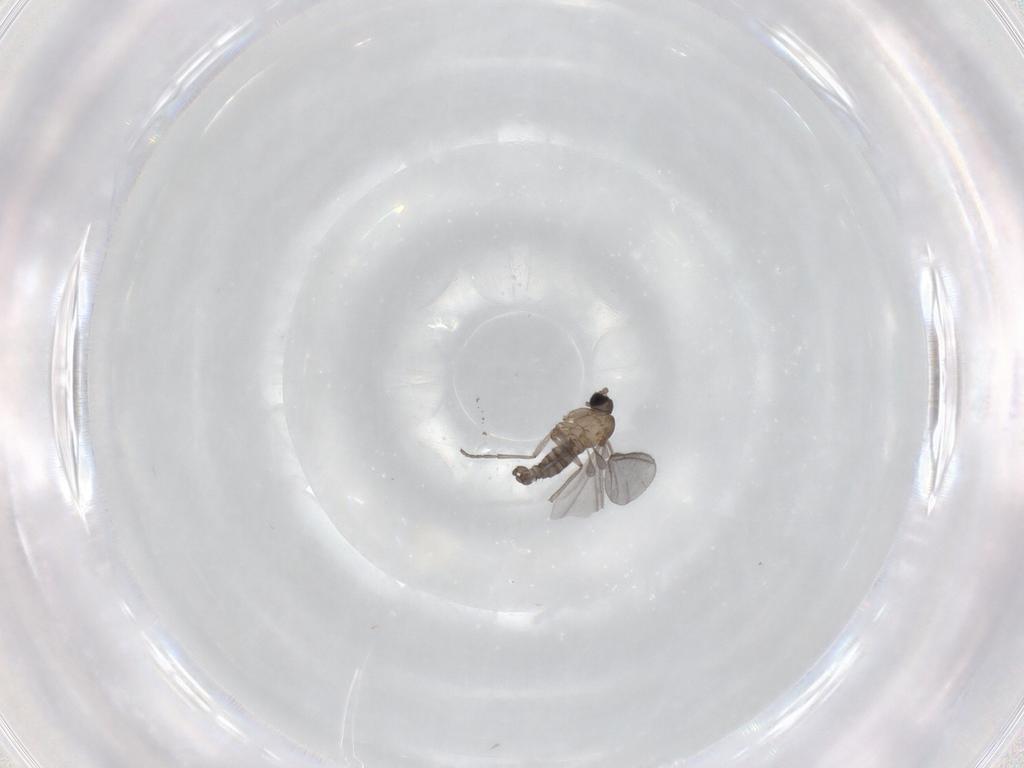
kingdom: Animalia
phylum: Arthropoda
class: Insecta
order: Diptera
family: Sciaridae
